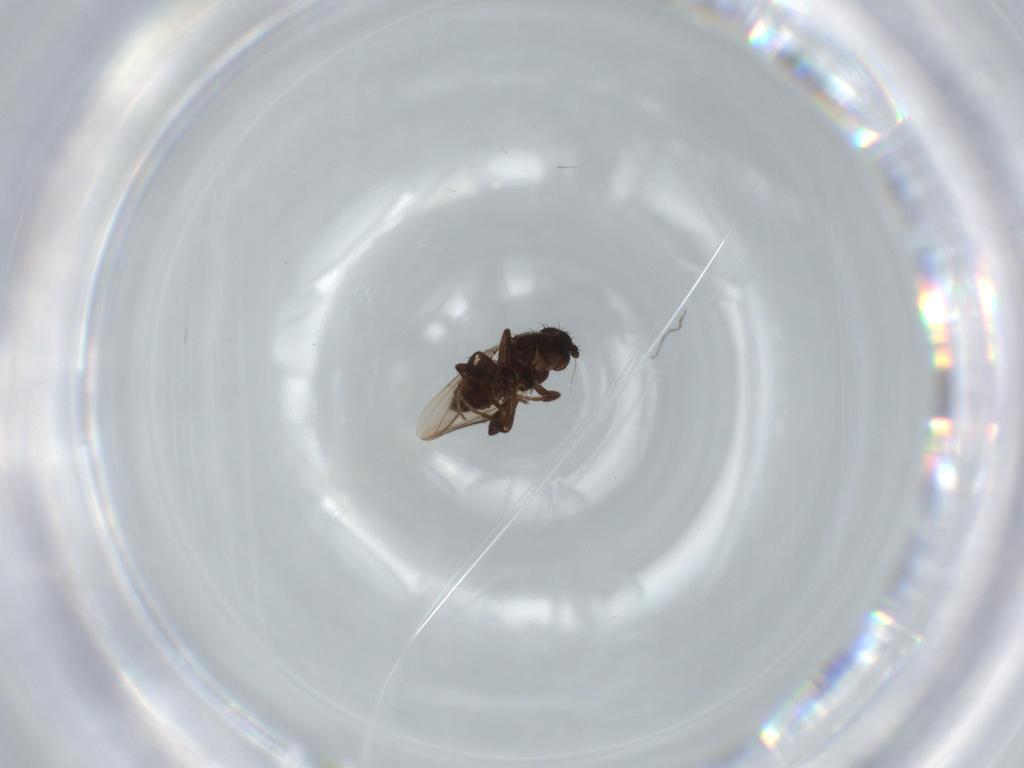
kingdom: Animalia
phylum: Arthropoda
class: Insecta
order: Diptera
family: Sphaeroceridae
